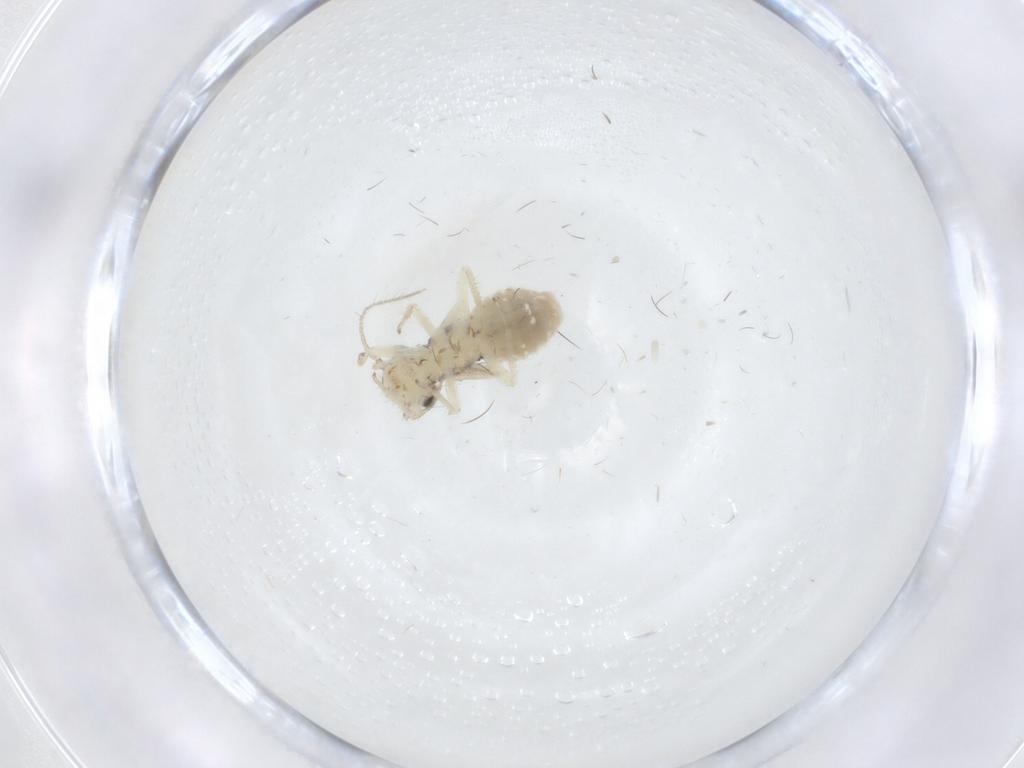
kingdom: Animalia
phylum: Arthropoda
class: Insecta
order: Psocodea
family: Pseudocaeciliidae
